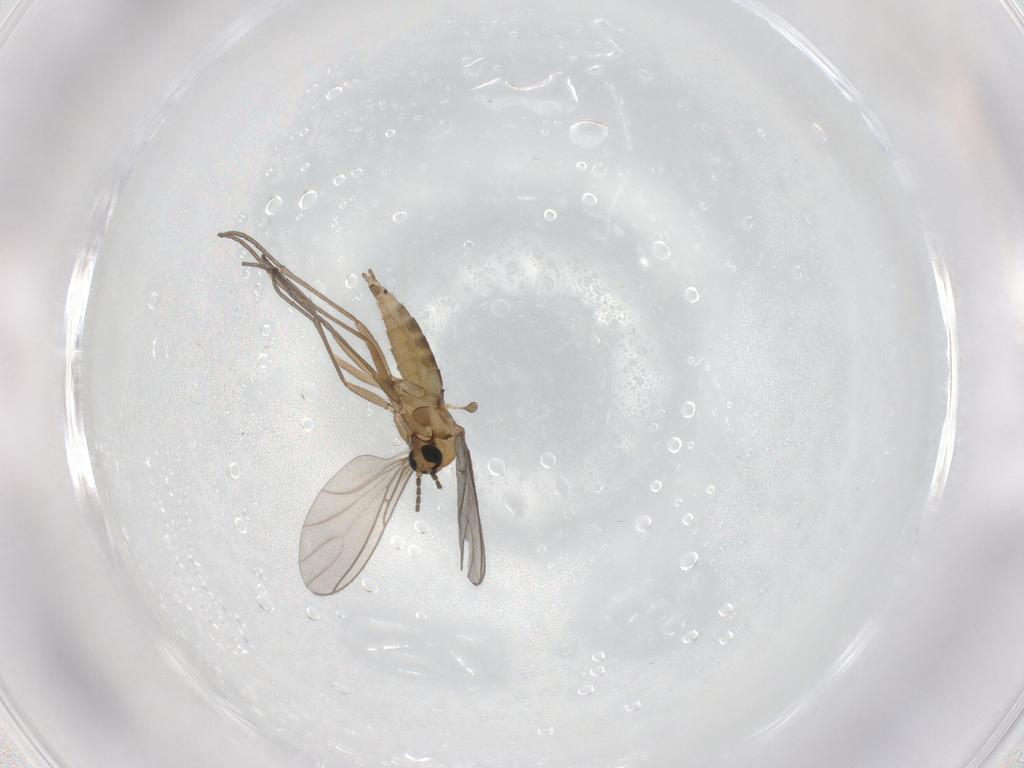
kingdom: Animalia
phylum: Arthropoda
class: Insecta
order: Diptera
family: Sciaridae
